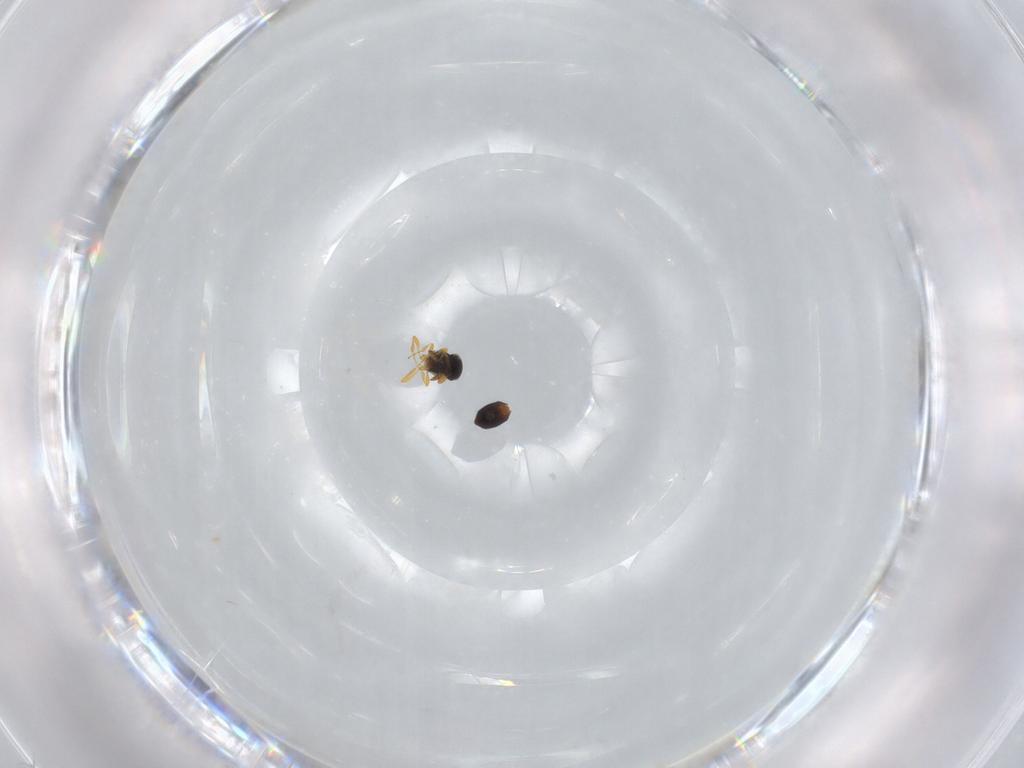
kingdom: Animalia
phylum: Arthropoda
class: Insecta
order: Hymenoptera
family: Platygastridae
